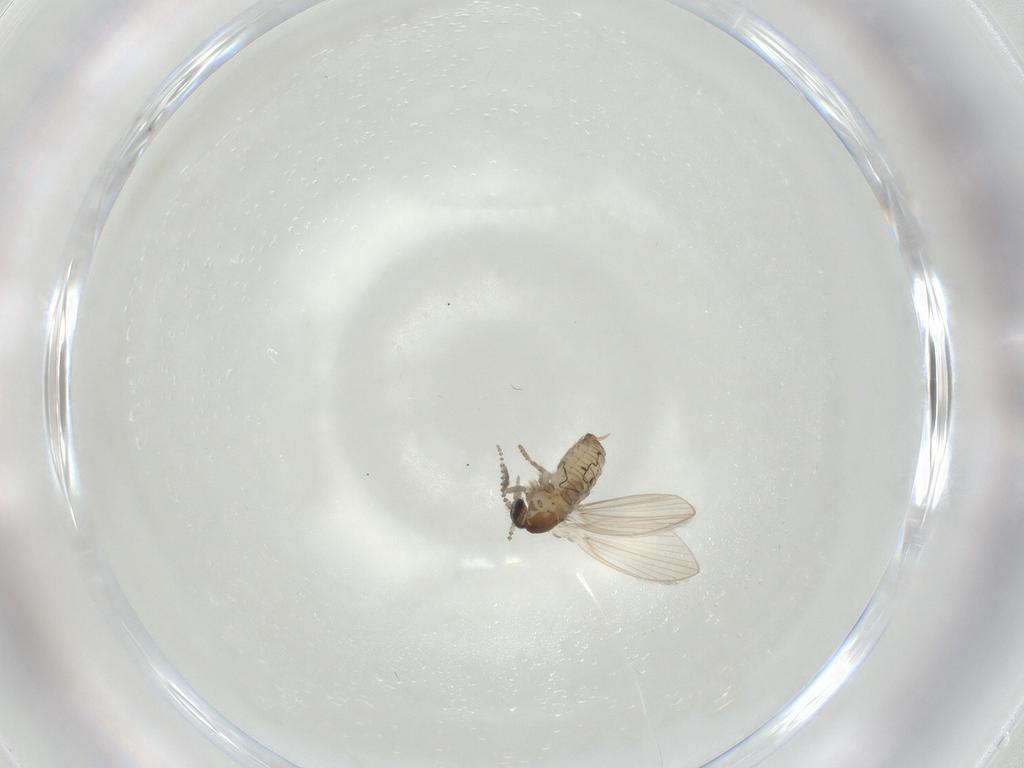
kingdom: Animalia
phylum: Arthropoda
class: Insecta
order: Diptera
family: Psychodidae
